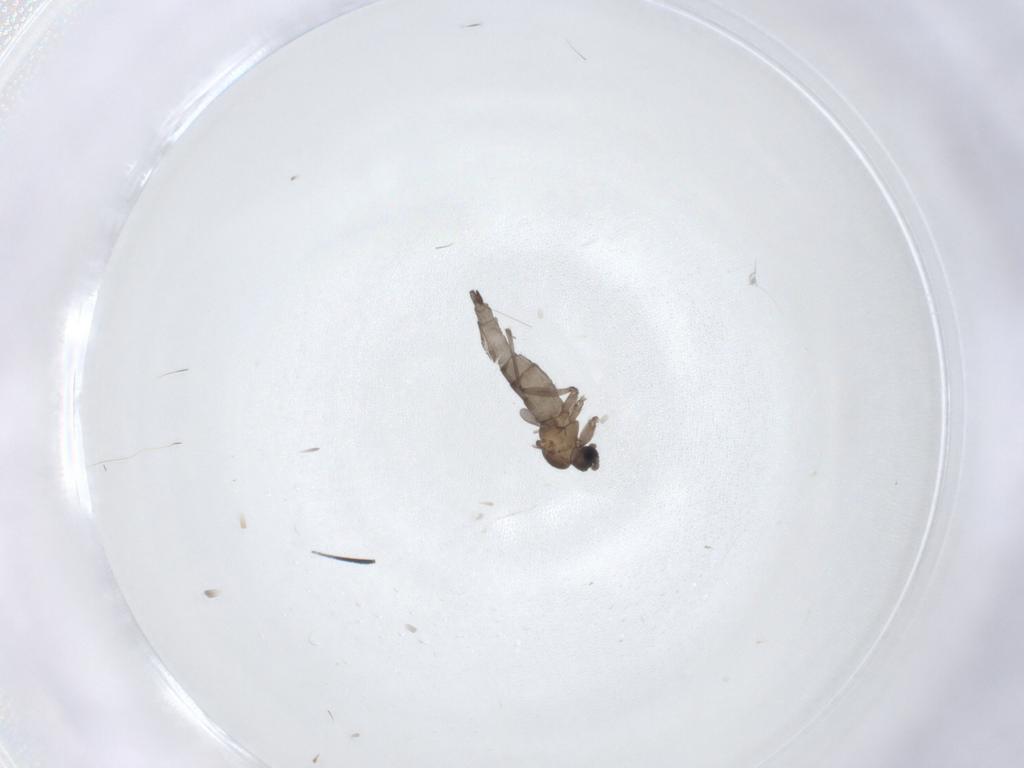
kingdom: Animalia
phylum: Arthropoda
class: Insecta
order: Diptera
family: Sciaridae
